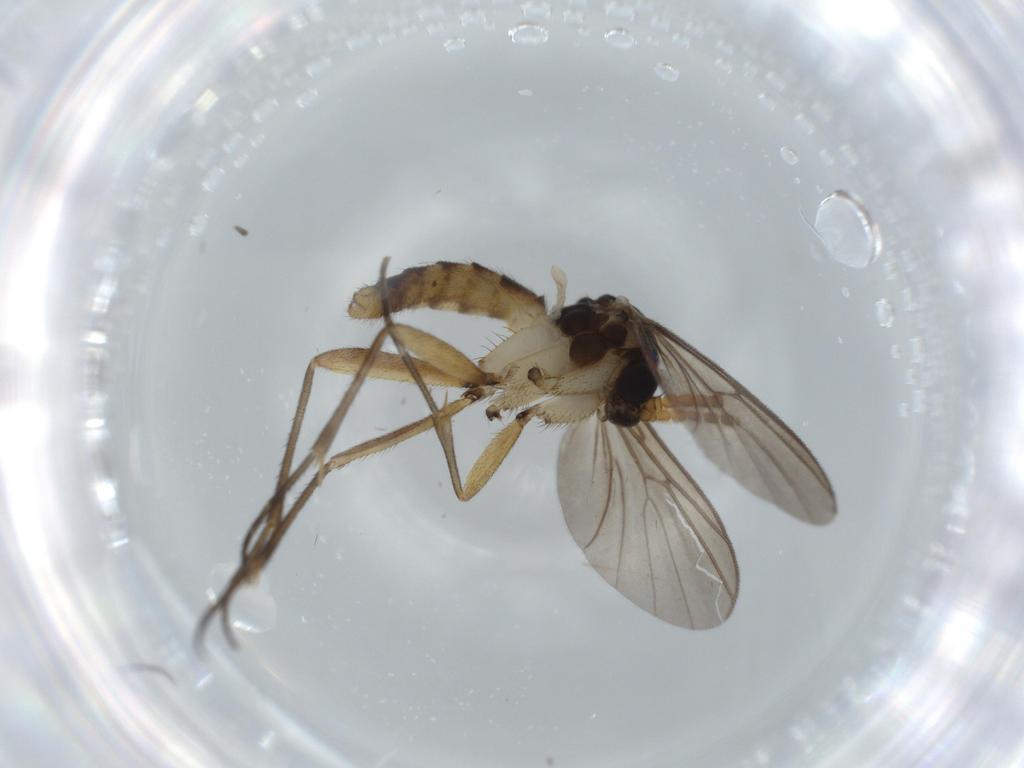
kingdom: Animalia
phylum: Arthropoda
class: Insecta
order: Diptera
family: Mycetophilidae
